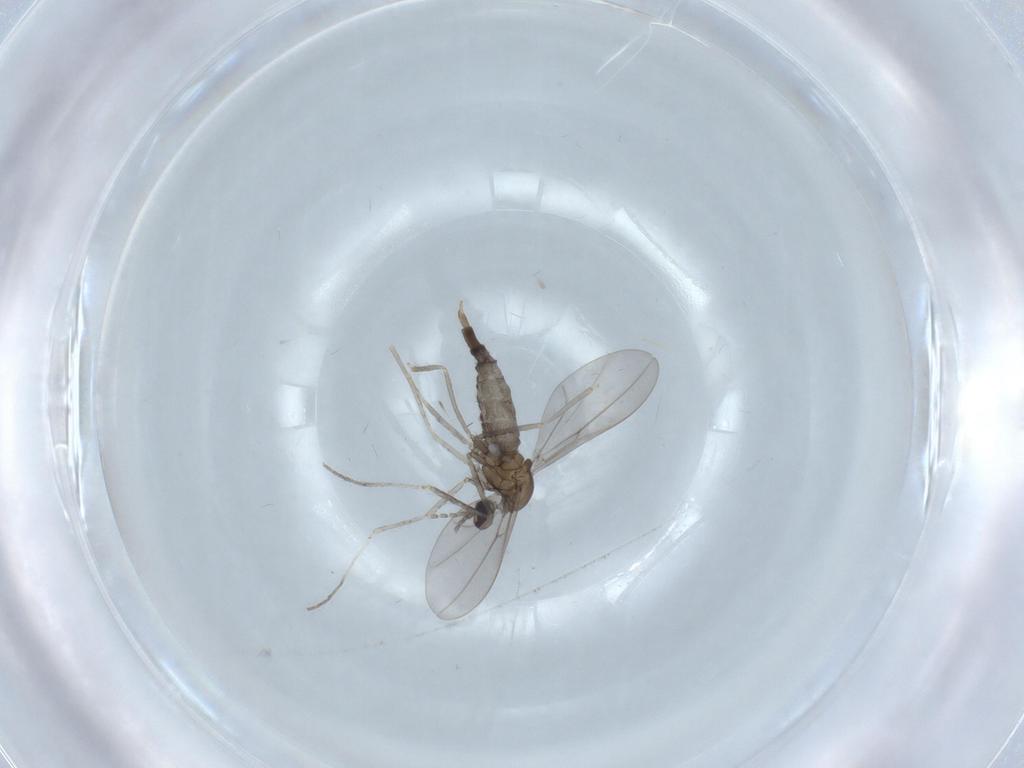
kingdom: Animalia
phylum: Arthropoda
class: Insecta
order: Diptera
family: Cecidomyiidae
